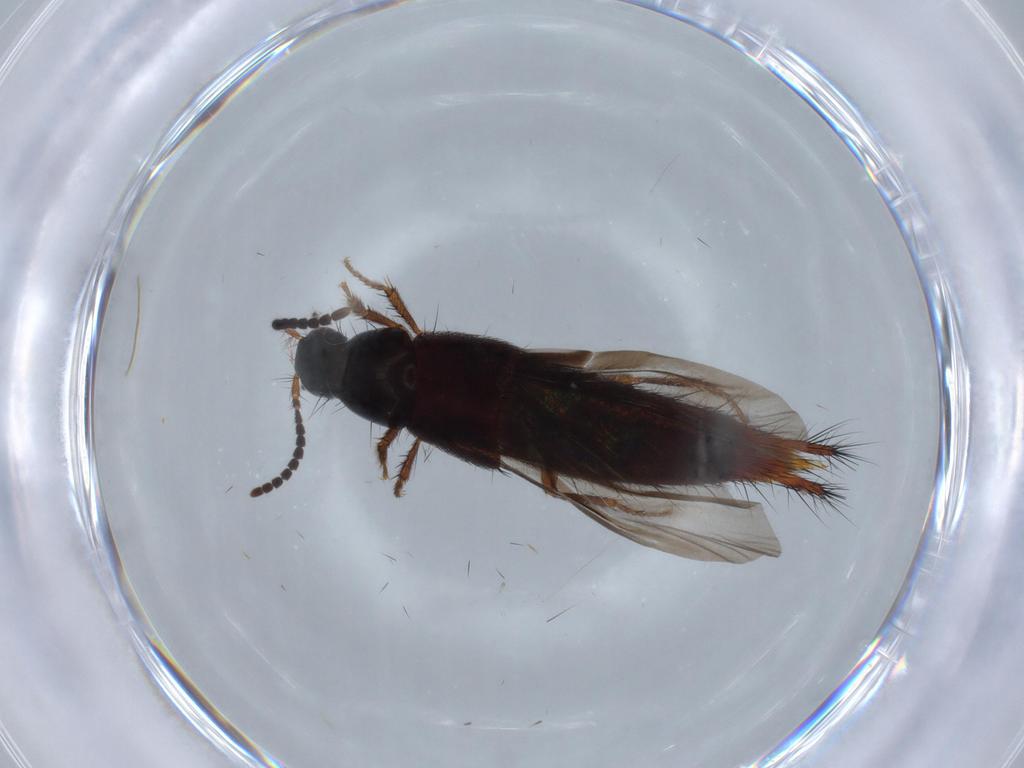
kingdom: Animalia
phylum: Arthropoda
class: Insecta
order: Coleoptera
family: Staphylinidae
